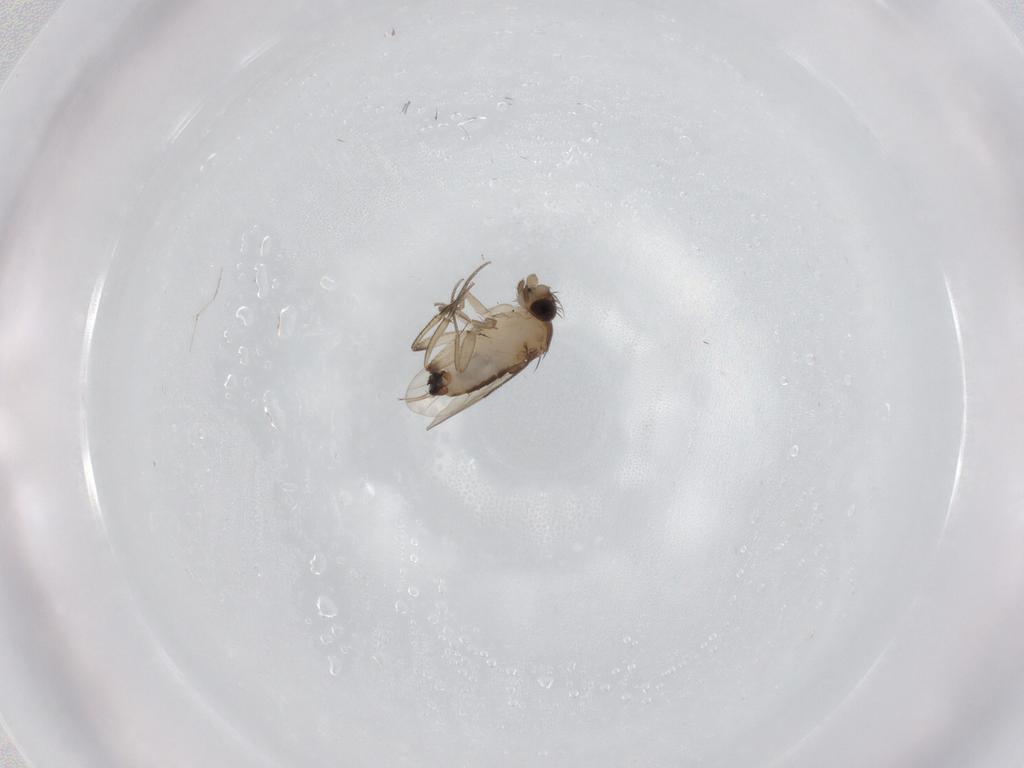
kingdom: Animalia
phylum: Arthropoda
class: Insecta
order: Diptera
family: Phoridae
